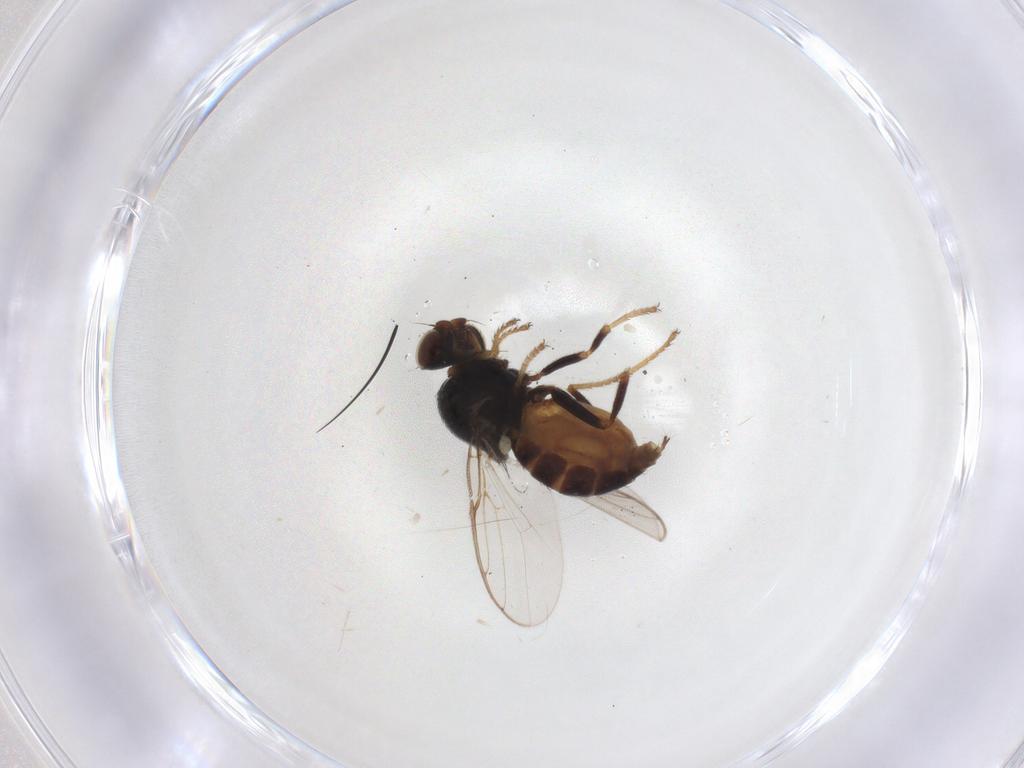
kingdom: Animalia
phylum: Arthropoda
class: Insecta
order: Diptera
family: Chloropidae
